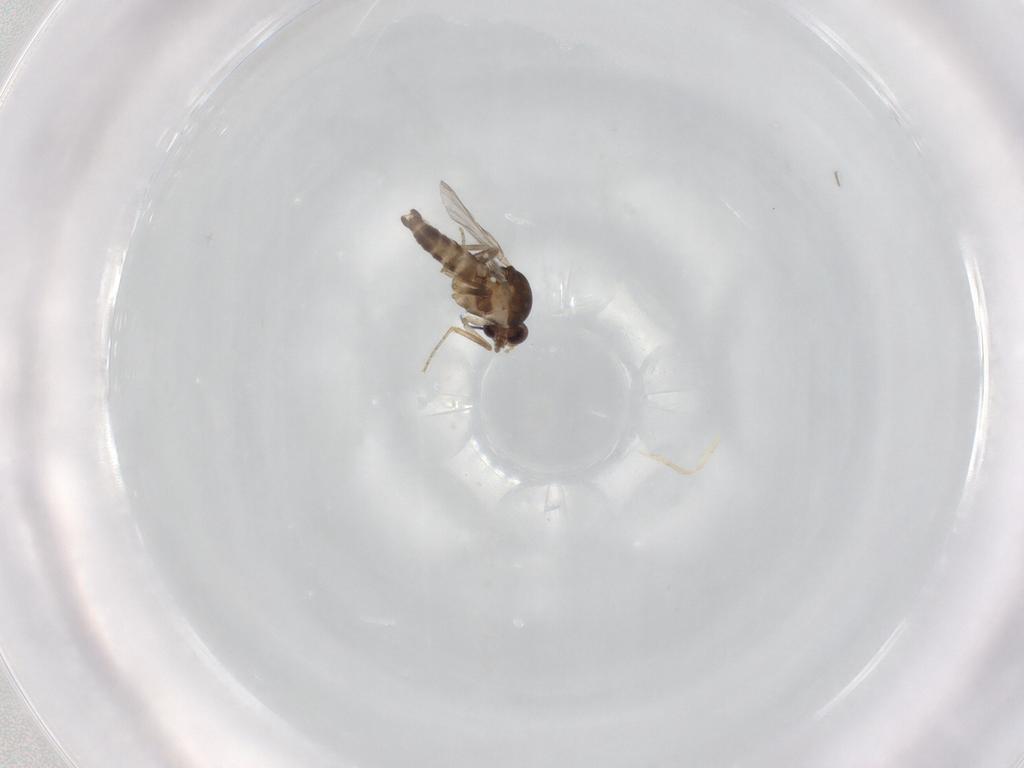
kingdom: Animalia
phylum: Arthropoda
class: Insecta
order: Diptera
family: Ceratopogonidae
